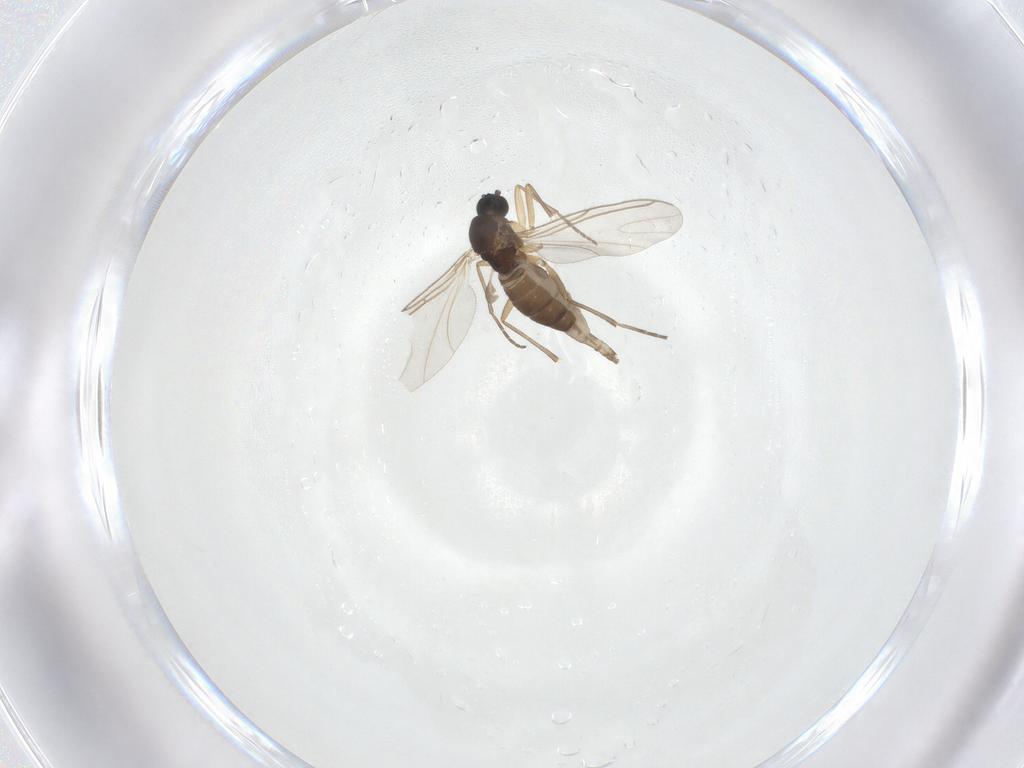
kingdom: Animalia
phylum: Arthropoda
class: Insecta
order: Diptera
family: Sciaridae
